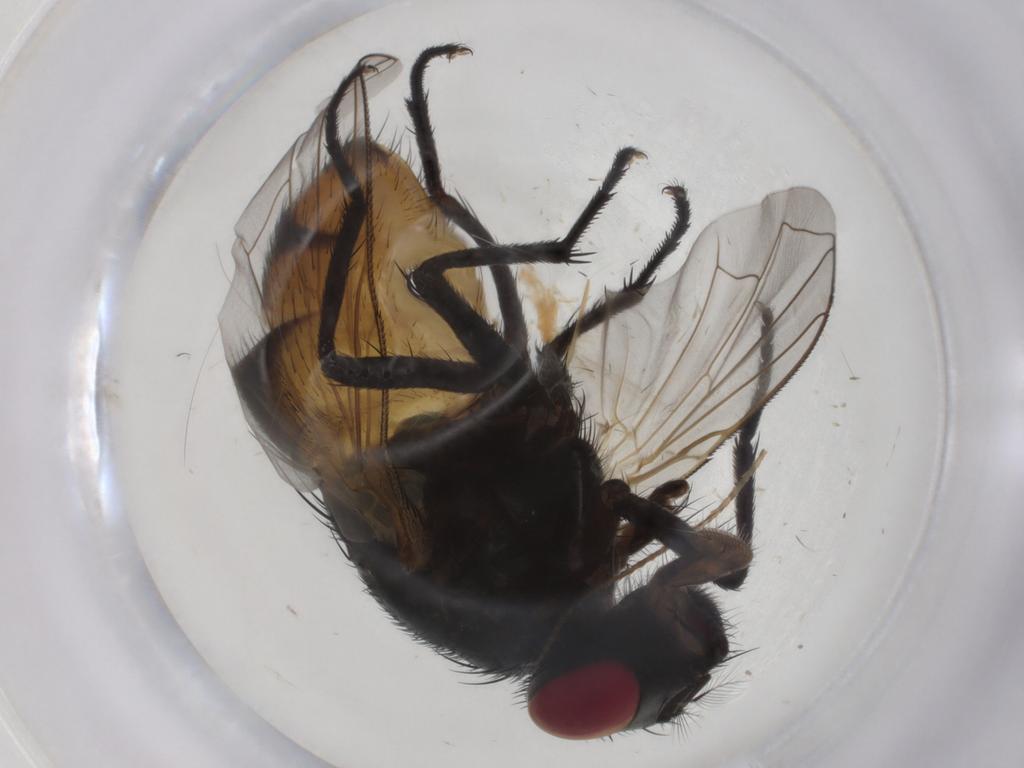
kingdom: Animalia
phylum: Arthropoda
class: Insecta
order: Diptera
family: Muscidae
